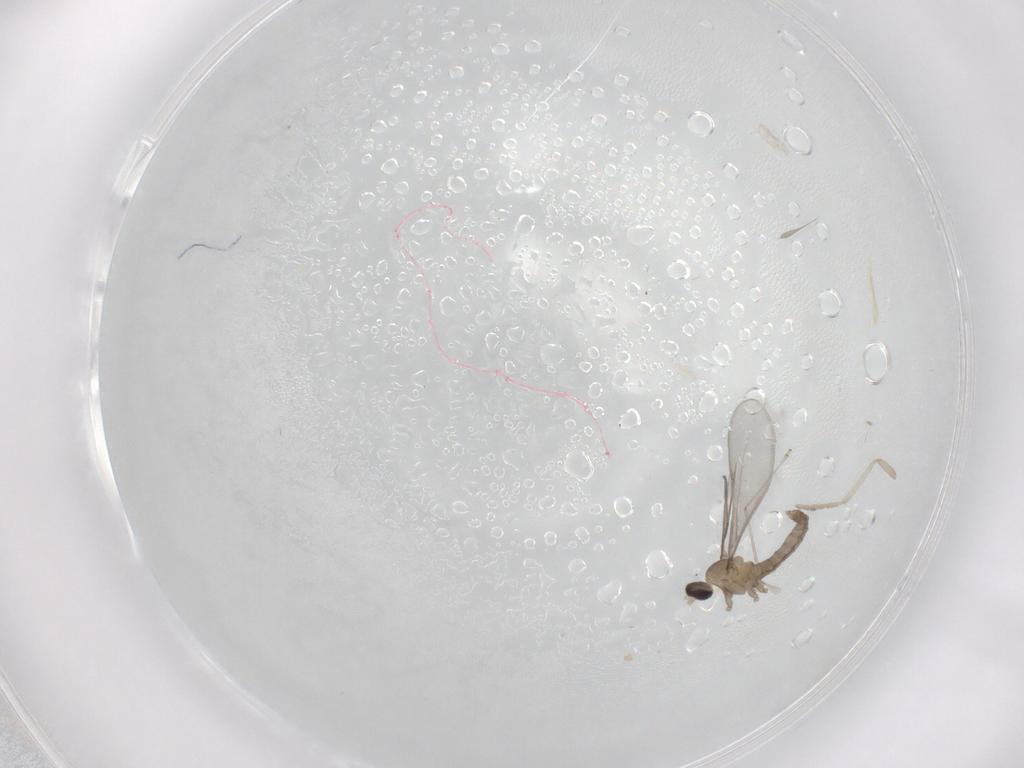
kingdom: Animalia
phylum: Arthropoda
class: Insecta
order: Diptera
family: Cecidomyiidae
